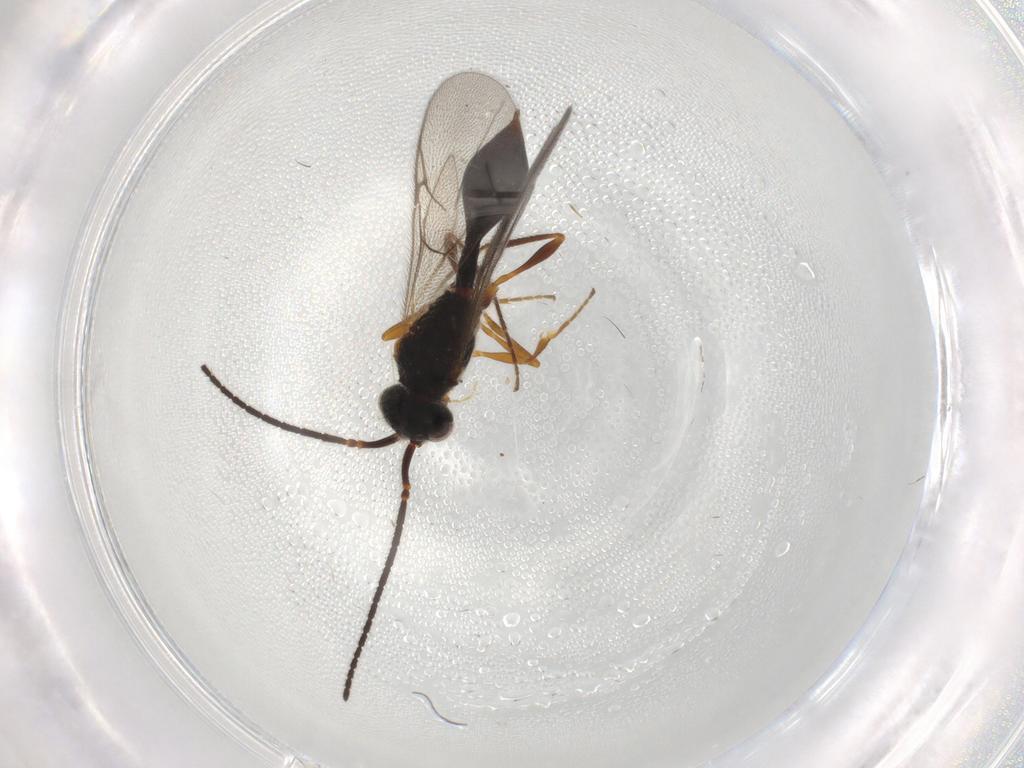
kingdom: Animalia
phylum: Arthropoda
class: Insecta
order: Hymenoptera
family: Diapriidae
